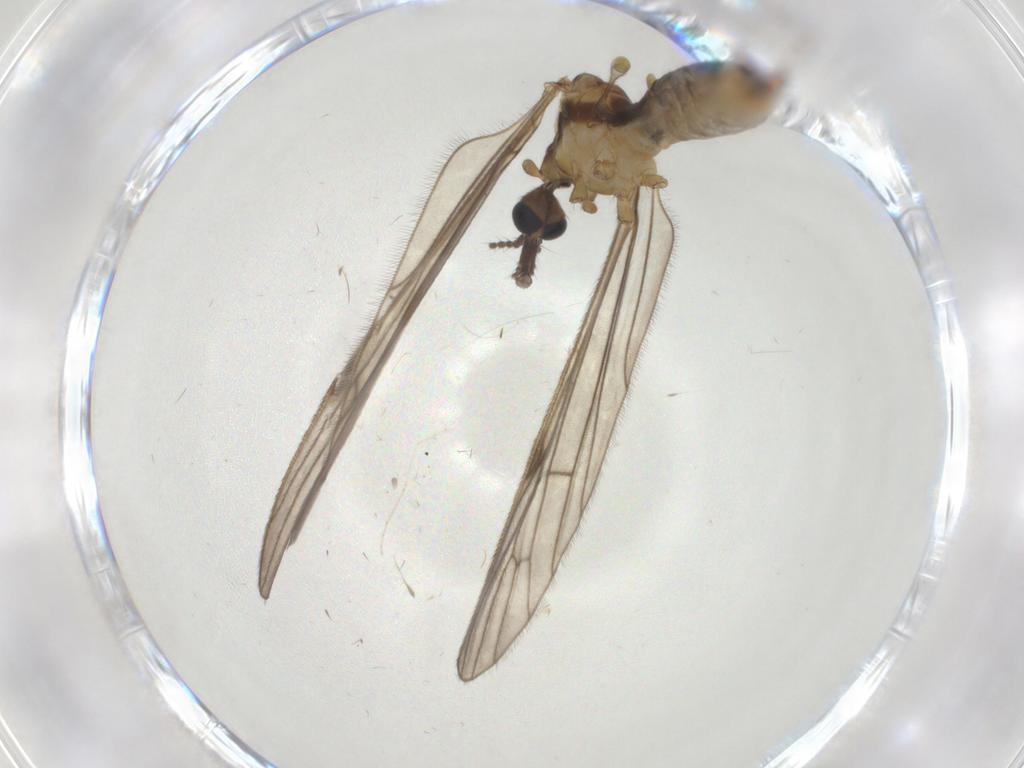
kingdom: Animalia
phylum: Arthropoda
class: Insecta
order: Diptera
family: Limoniidae
